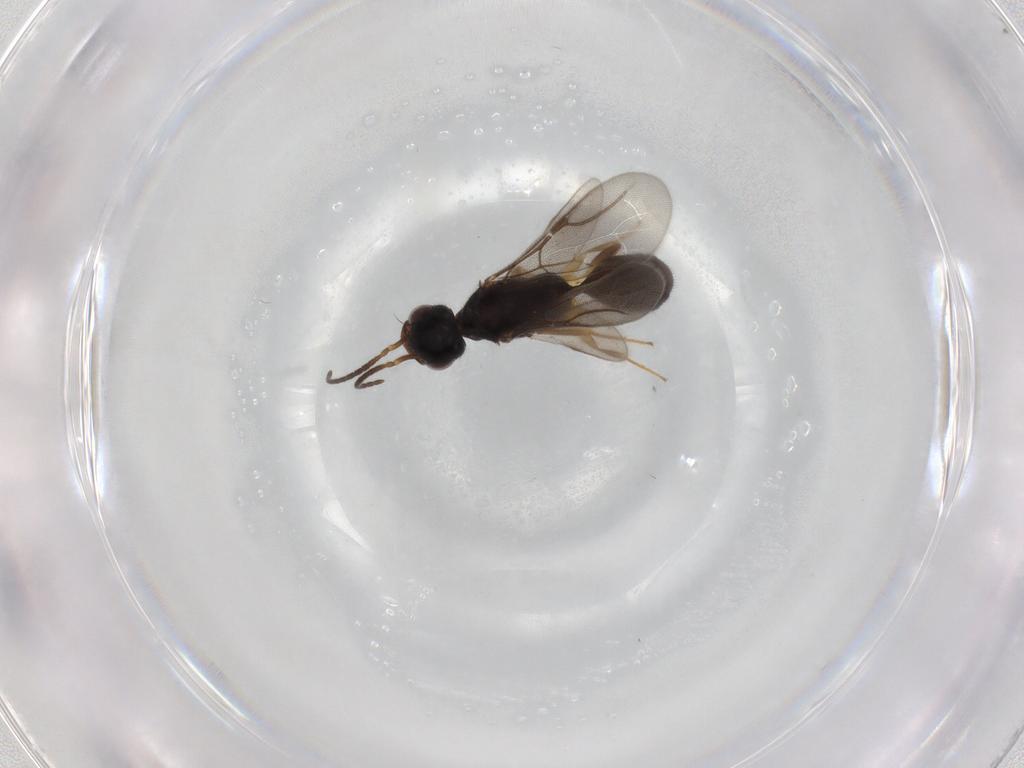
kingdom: Animalia
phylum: Arthropoda
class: Insecta
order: Hymenoptera
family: Bethylidae
